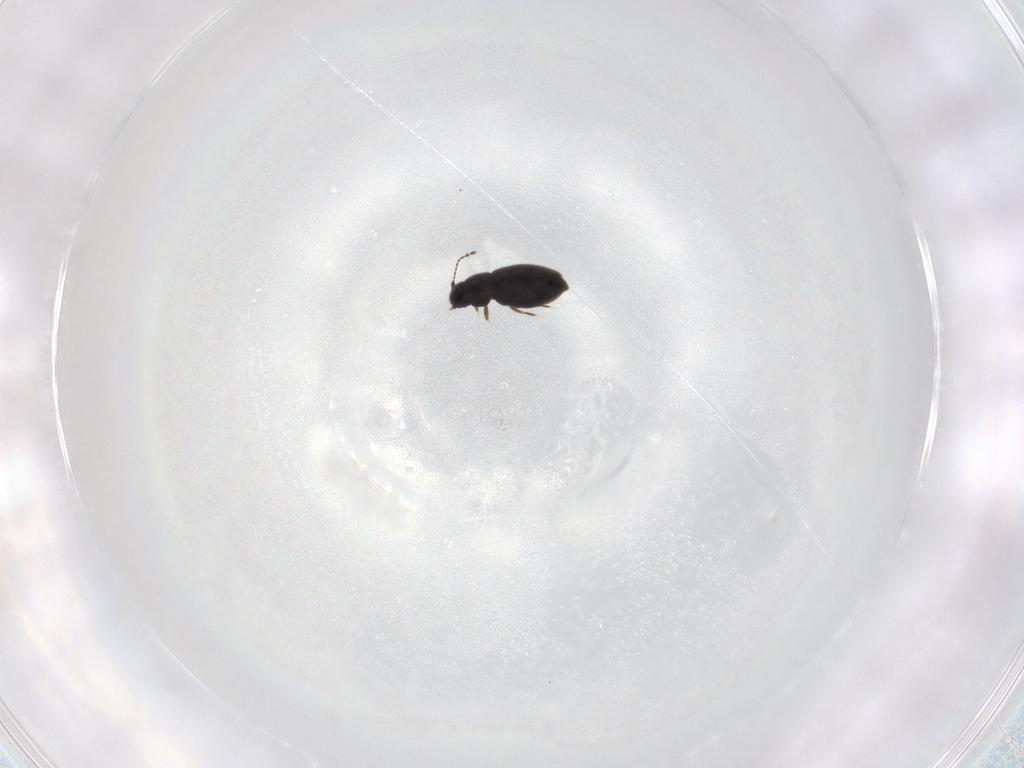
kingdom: Animalia
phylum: Arthropoda
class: Insecta
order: Coleoptera
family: Ptiliidae
